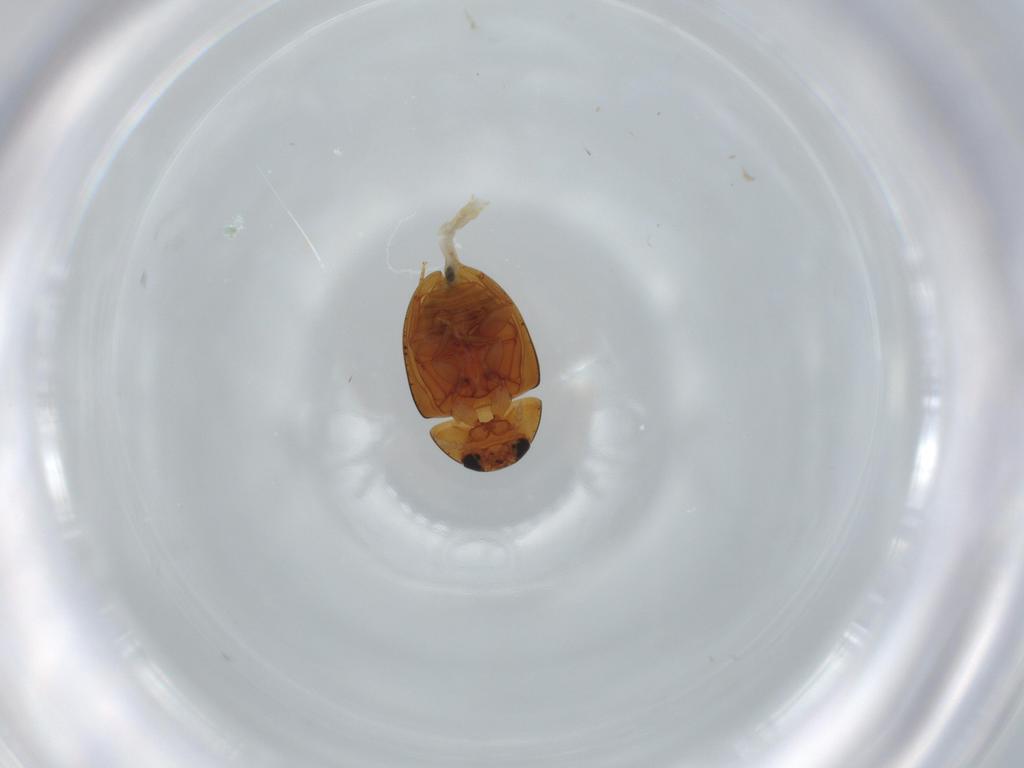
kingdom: Animalia
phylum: Arthropoda
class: Insecta
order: Coleoptera
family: Phalacridae
